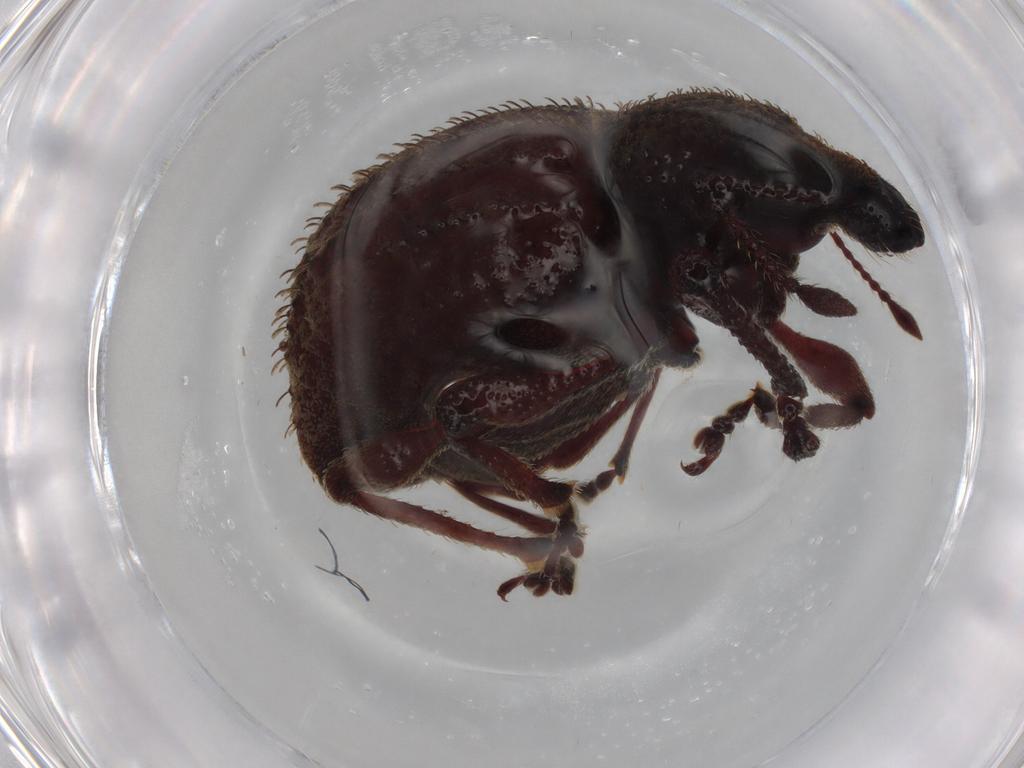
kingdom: Animalia
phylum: Arthropoda
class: Insecta
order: Coleoptera
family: Curculionidae
